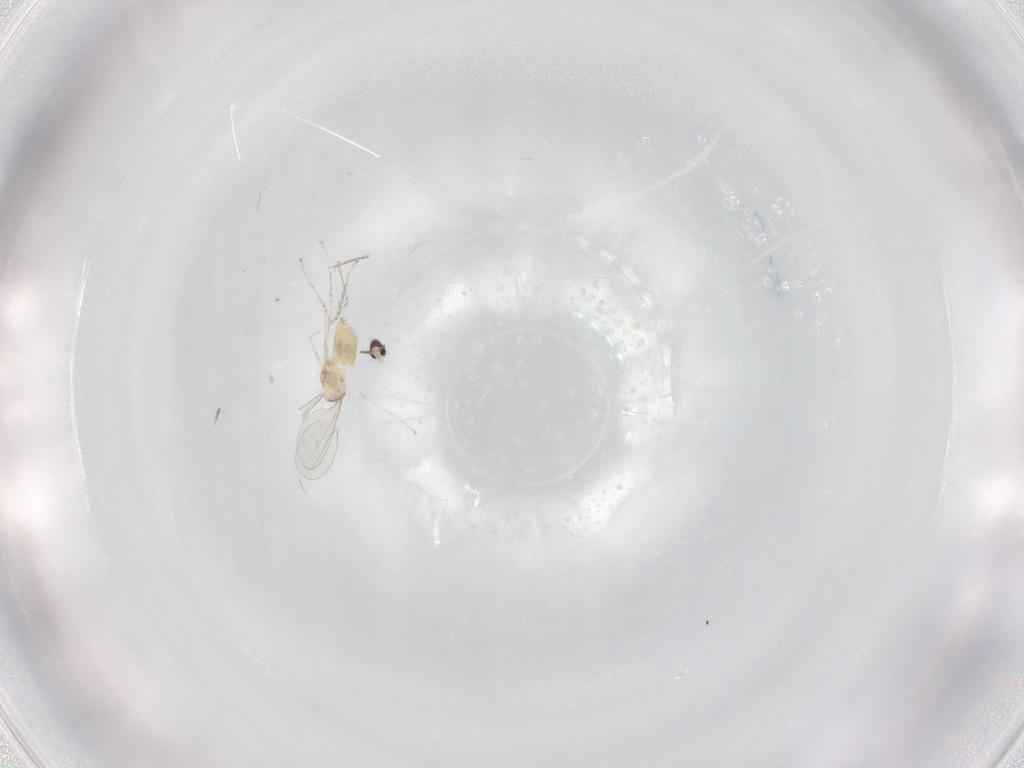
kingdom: Animalia
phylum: Arthropoda
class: Insecta
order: Diptera
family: Cecidomyiidae
